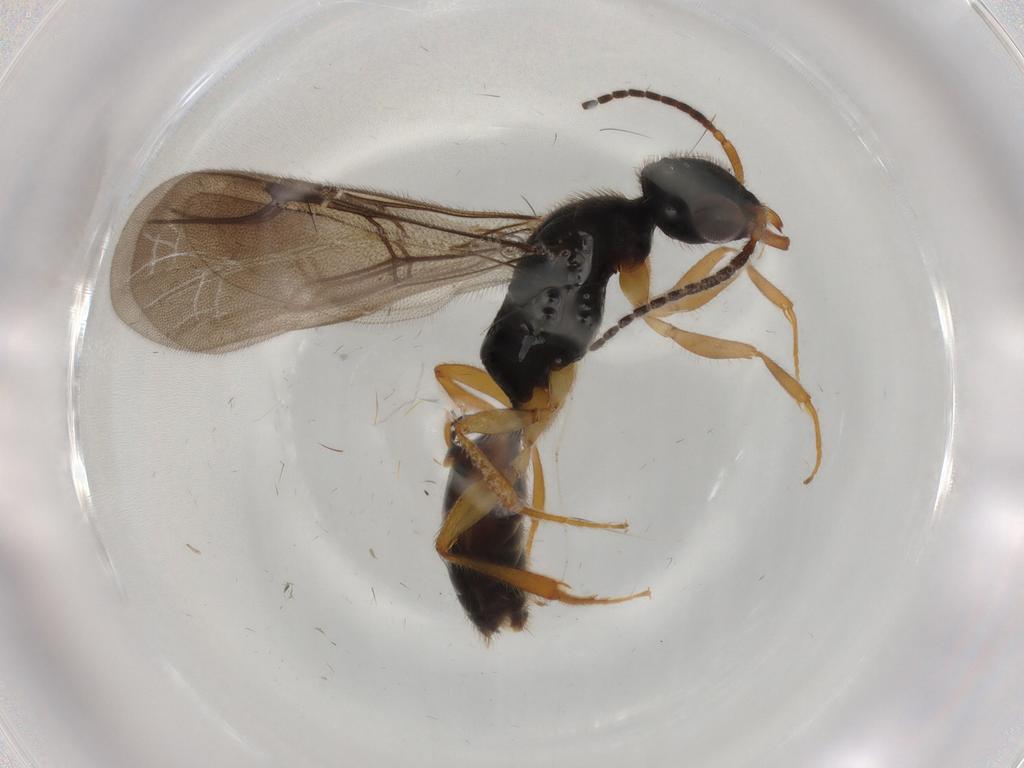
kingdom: Animalia
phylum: Arthropoda
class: Insecta
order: Hymenoptera
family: Bethylidae
